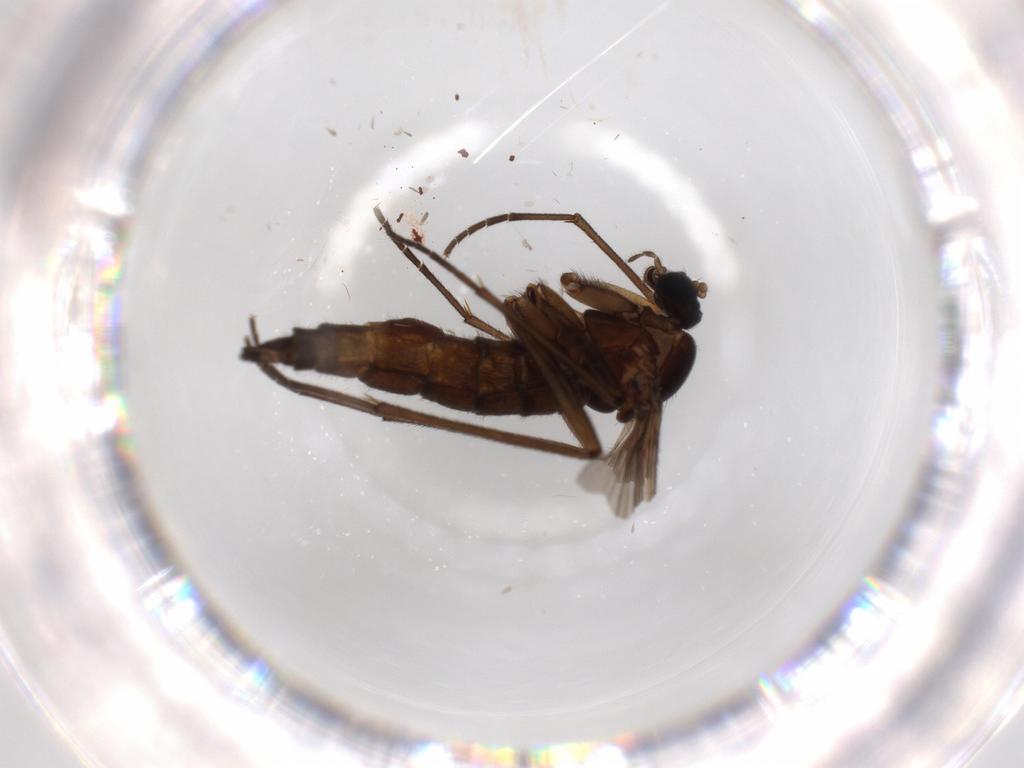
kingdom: Animalia
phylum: Arthropoda
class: Insecta
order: Diptera
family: Sciaridae
